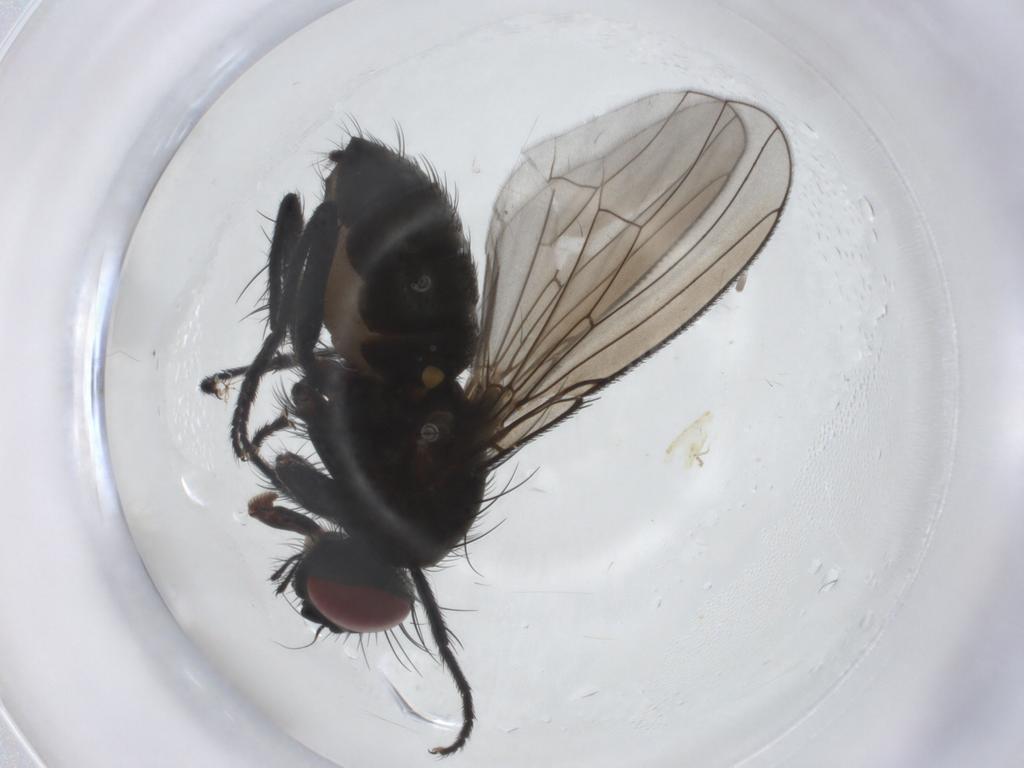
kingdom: Animalia
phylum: Arthropoda
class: Insecta
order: Diptera
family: Muscidae
